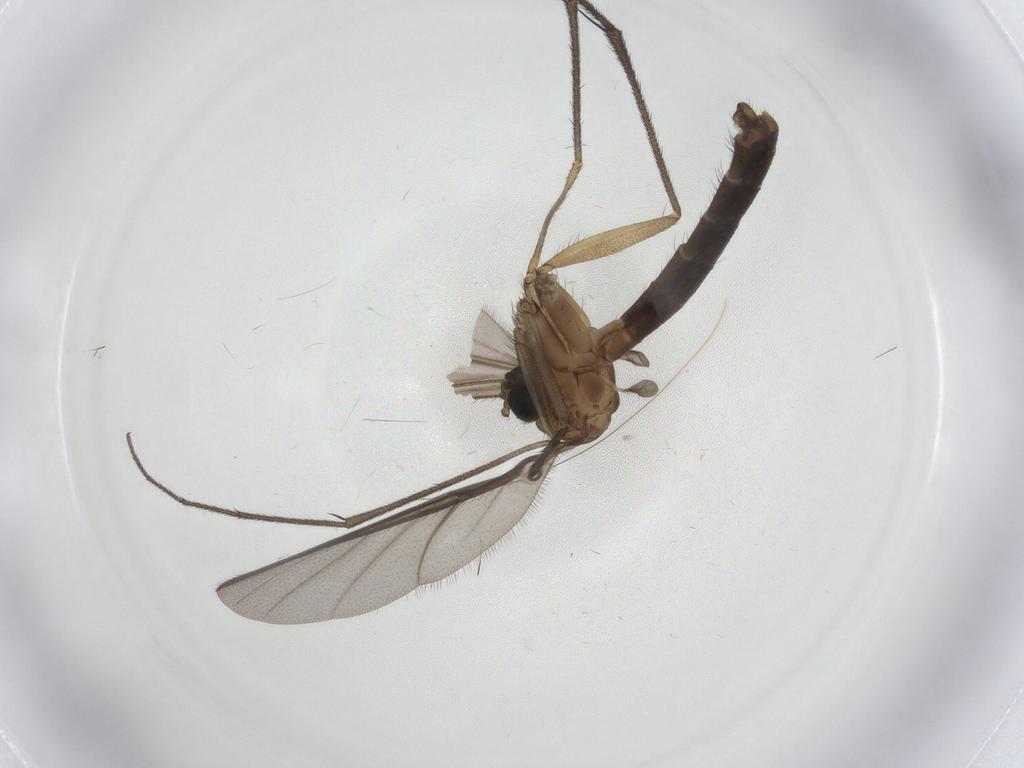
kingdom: Animalia
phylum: Arthropoda
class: Insecta
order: Diptera
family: Ditomyiidae
